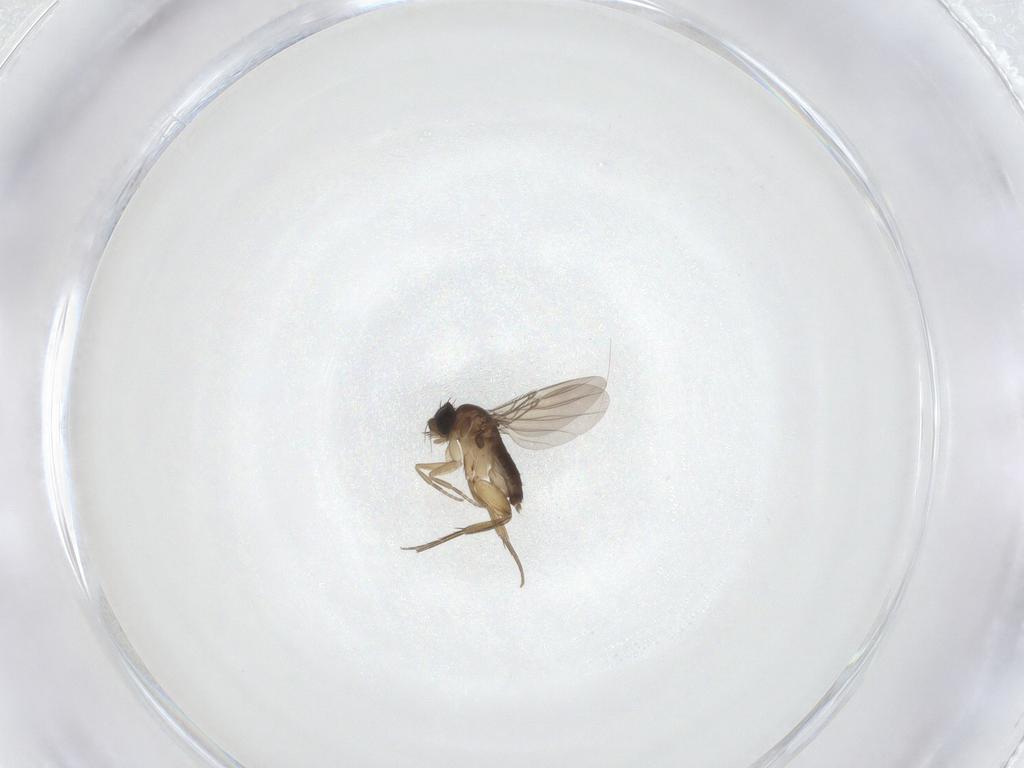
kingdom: Animalia
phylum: Arthropoda
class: Insecta
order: Diptera
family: Phoridae
